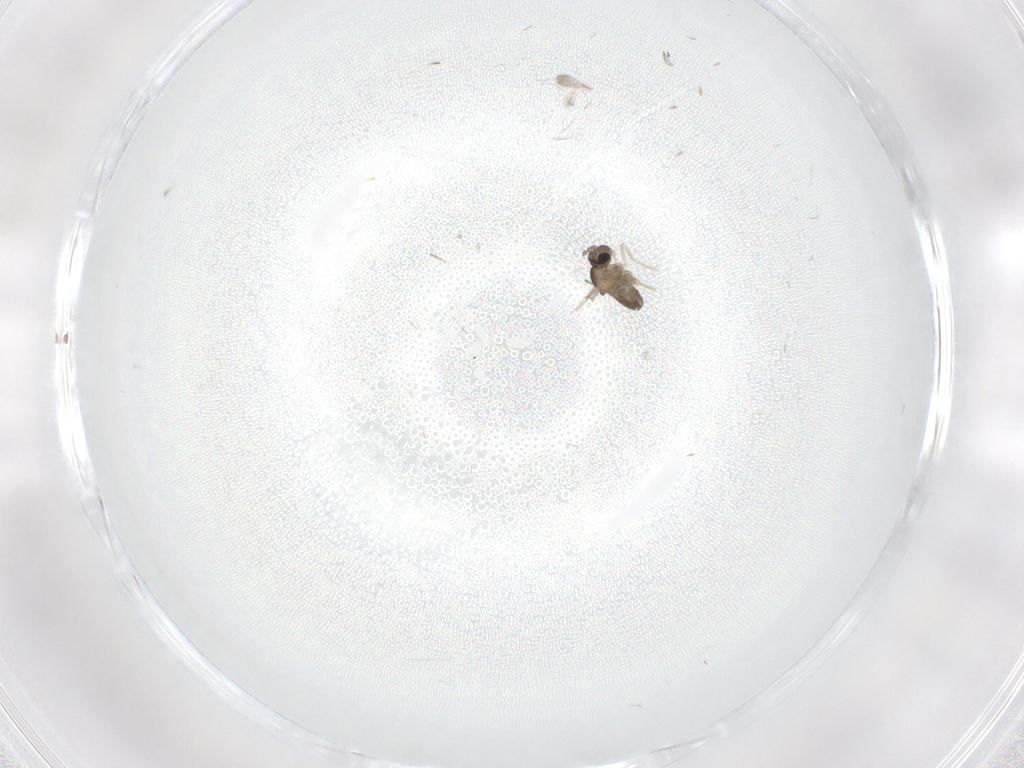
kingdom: Animalia
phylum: Arthropoda
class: Insecta
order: Diptera
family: Cecidomyiidae
